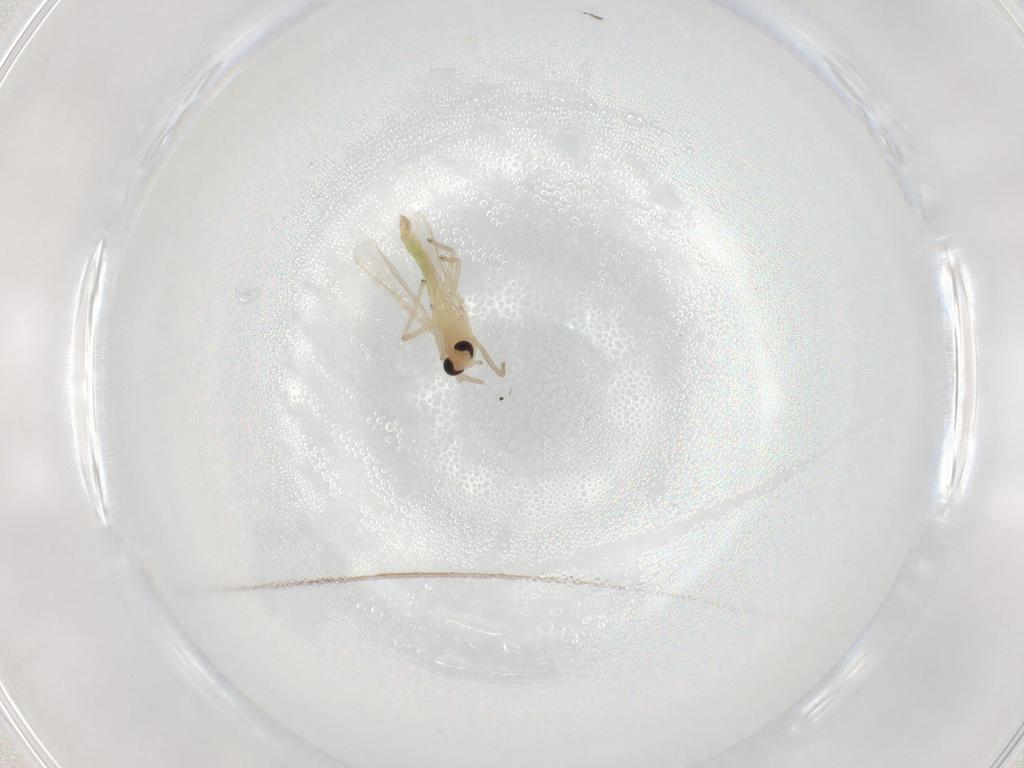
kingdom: Animalia
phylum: Arthropoda
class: Insecta
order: Diptera
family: Chironomidae
